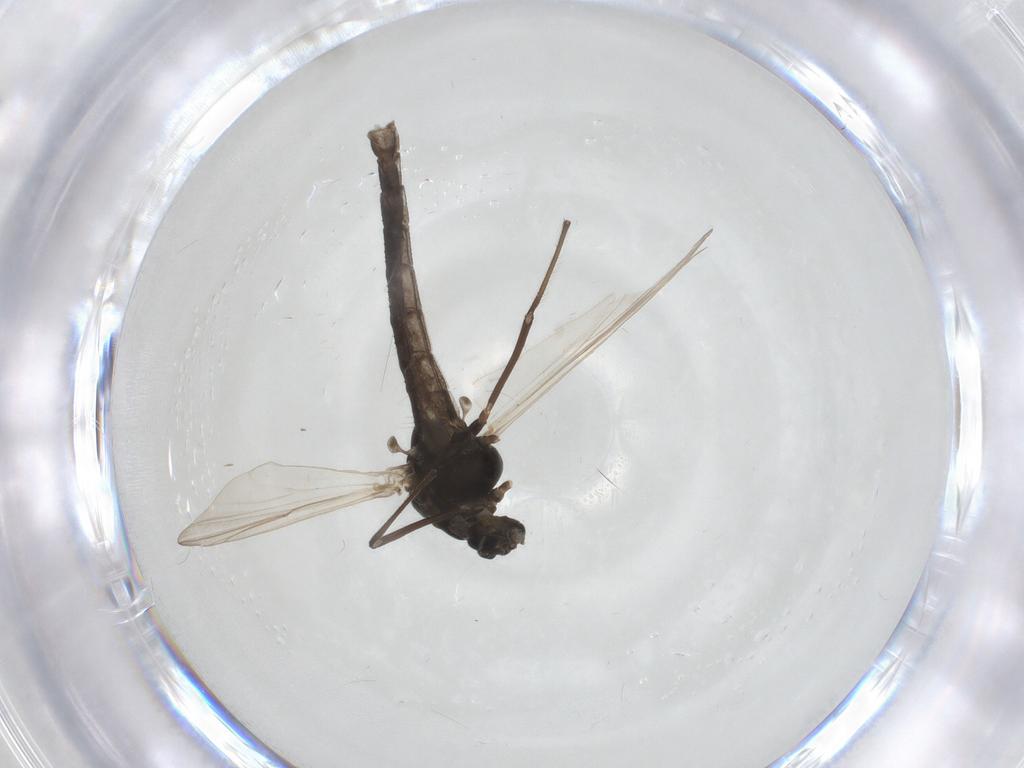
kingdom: Animalia
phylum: Arthropoda
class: Insecta
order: Diptera
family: Chironomidae
